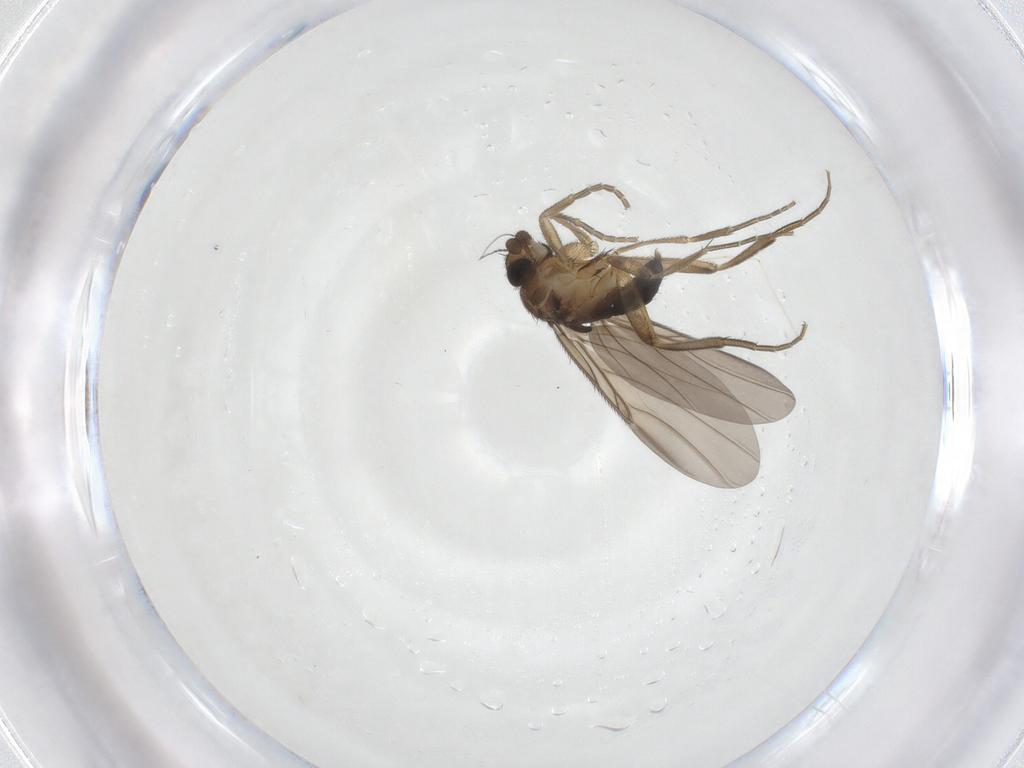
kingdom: Animalia
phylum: Arthropoda
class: Insecta
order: Diptera
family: Phoridae
